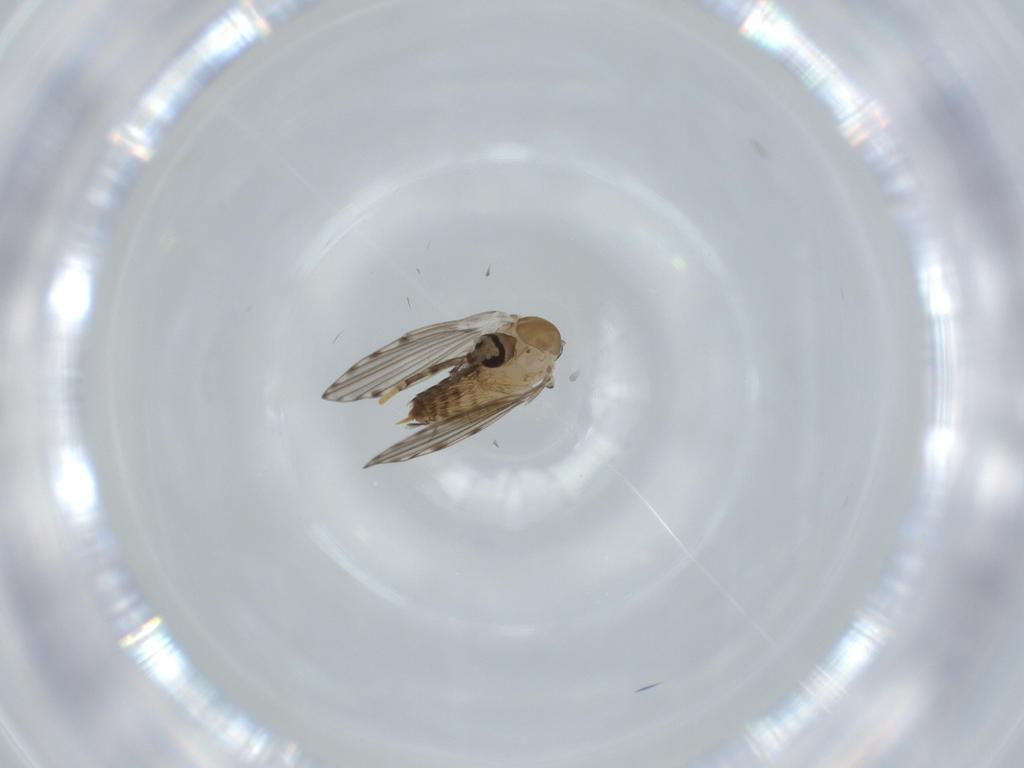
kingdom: Animalia
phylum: Arthropoda
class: Insecta
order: Diptera
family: Psychodidae
